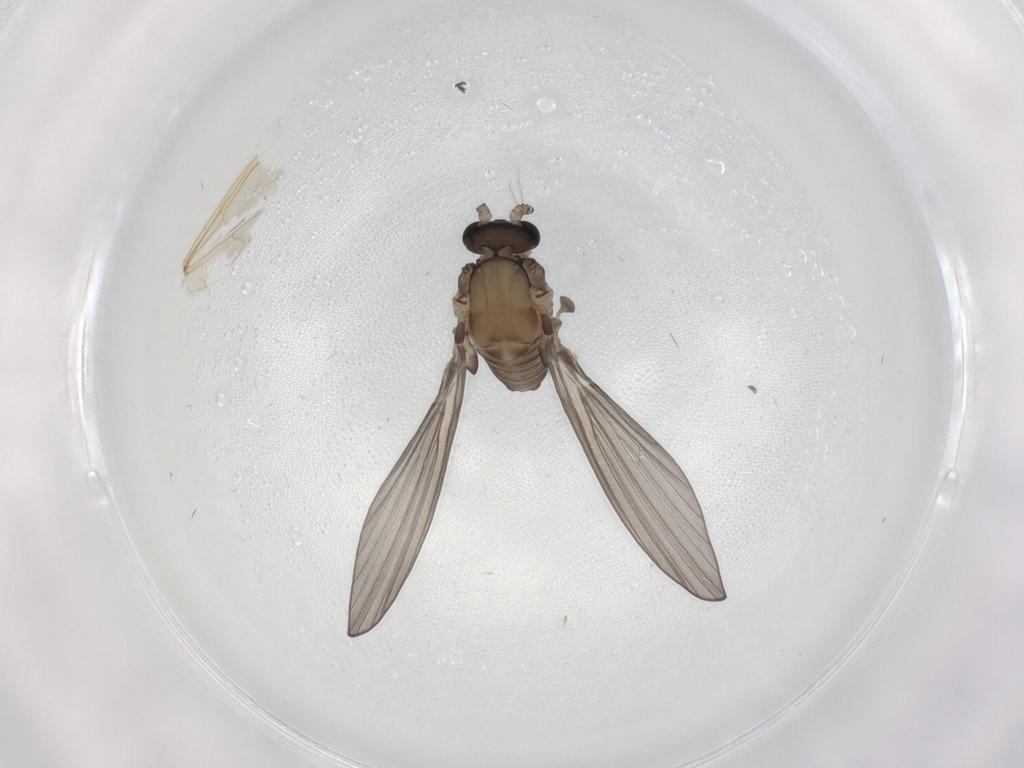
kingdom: Animalia
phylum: Arthropoda
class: Insecta
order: Diptera
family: Psychodidae
